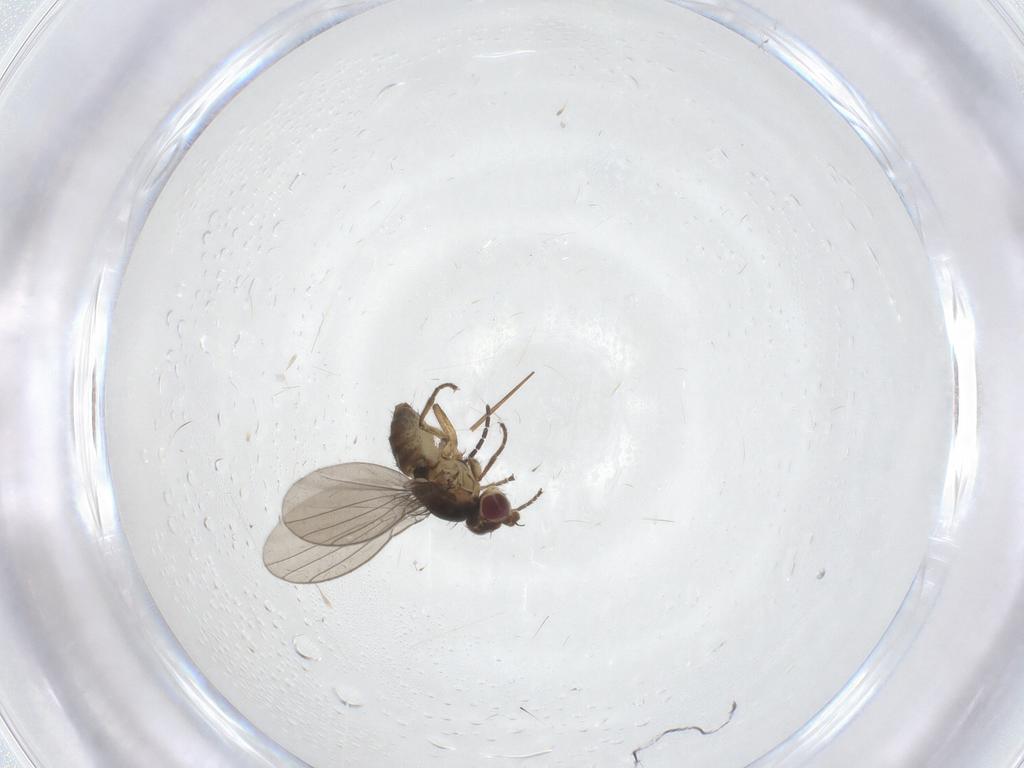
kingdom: Animalia
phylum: Arthropoda
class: Insecta
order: Diptera
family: Agromyzidae
